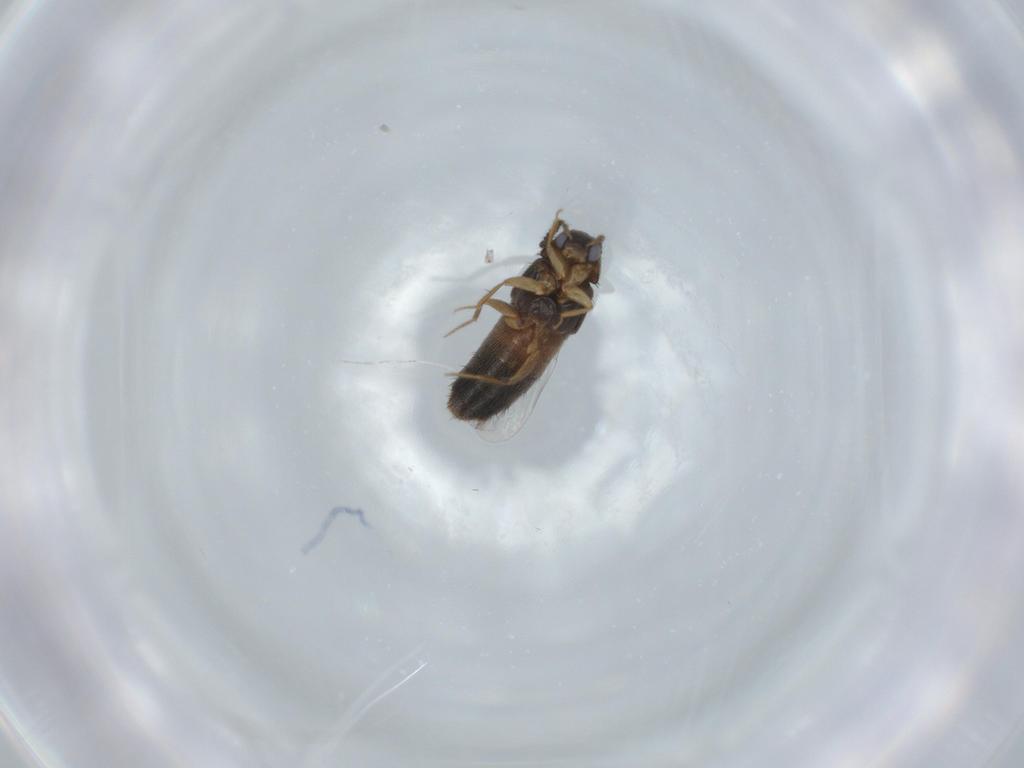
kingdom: Animalia
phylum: Arthropoda
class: Insecta
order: Coleoptera
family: Staphylinidae
